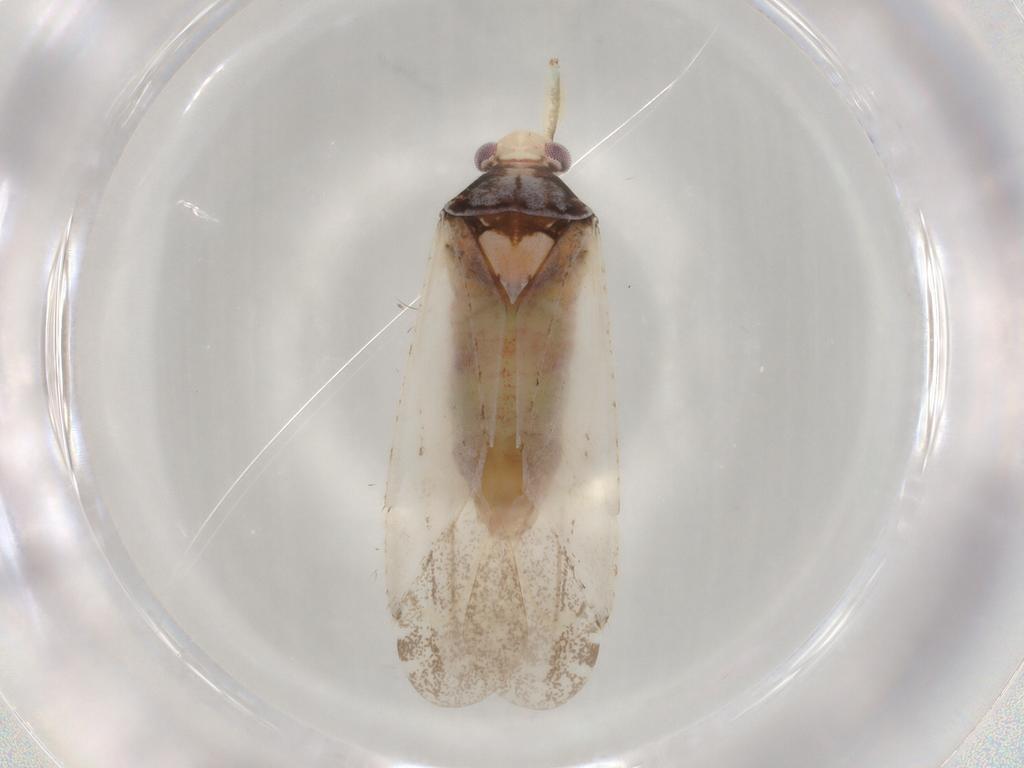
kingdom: Animalia
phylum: Arthropoda
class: Insecta
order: Hemiptera
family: Miridae
